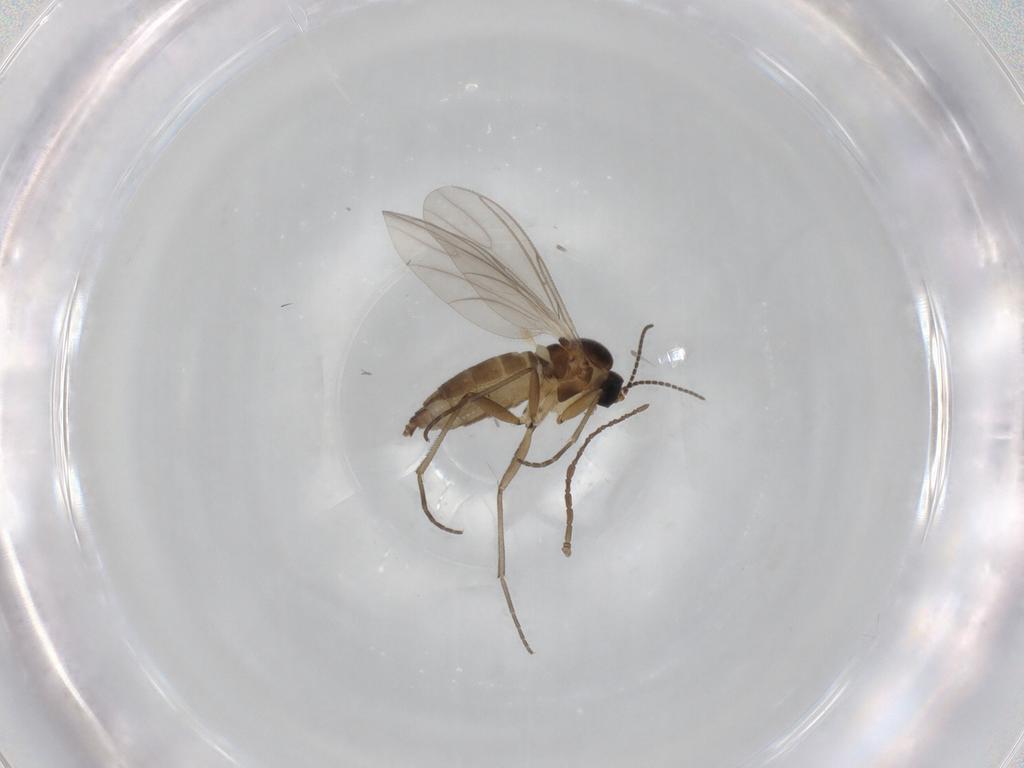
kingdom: Animalia
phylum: Arthropoda
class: Insecta
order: Diptera
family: Cecidomyiidae
